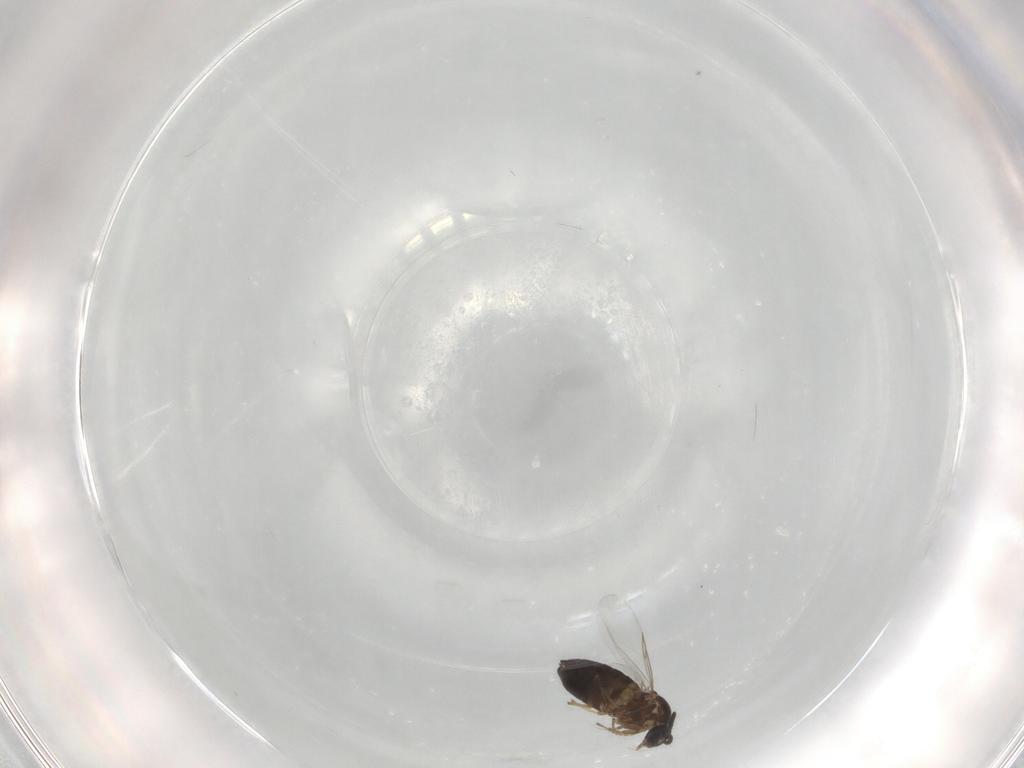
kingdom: Animalia
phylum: Arthropoda
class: Insecta
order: Diptera
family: Scatopsidae
